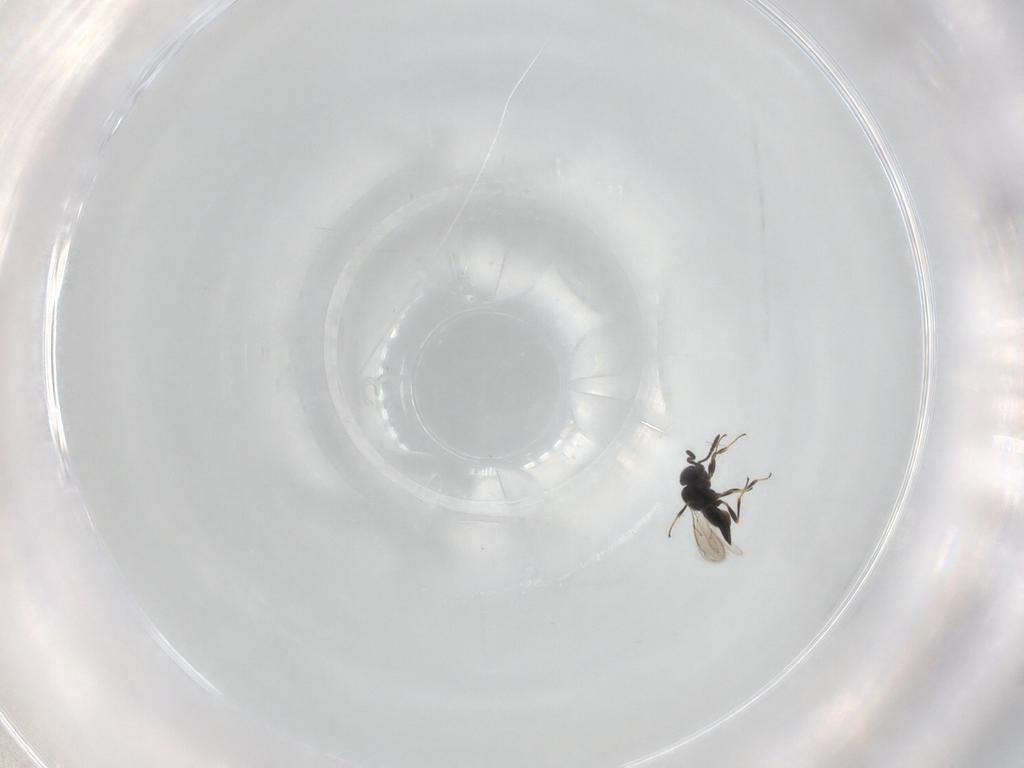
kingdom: Animalia
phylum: Arthropoda
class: Insecta
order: Hymenoptera
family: Scelionidae
